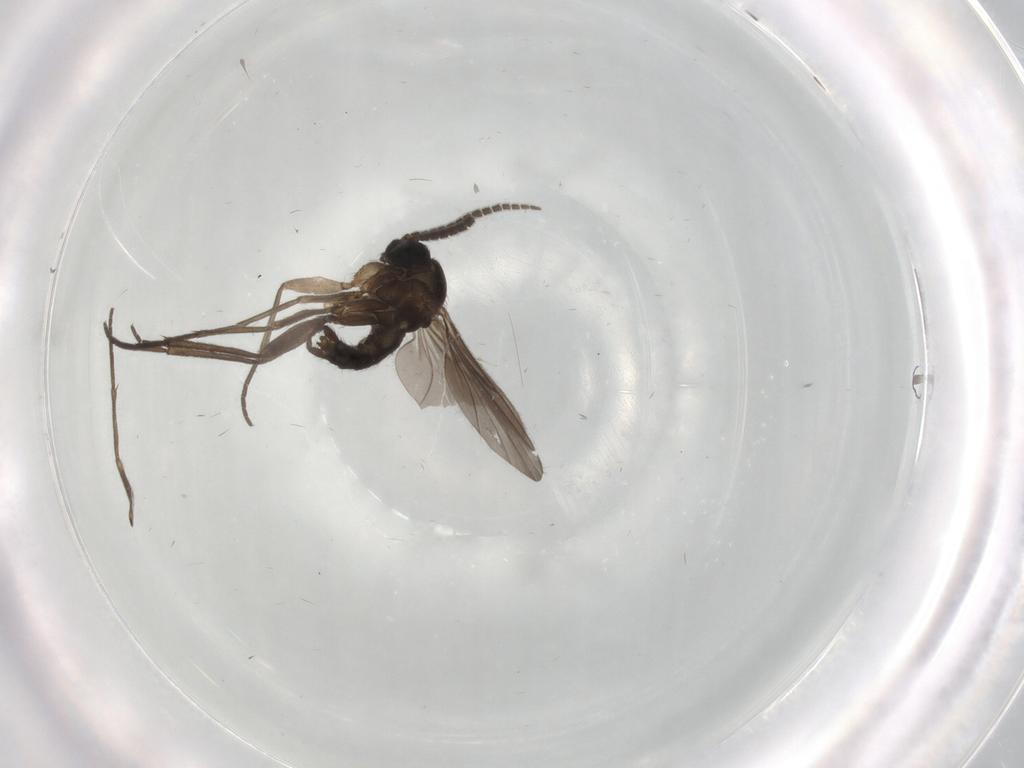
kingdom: Animalia
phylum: Arthropoda
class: Insecta
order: Diptera
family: Sciaridae
